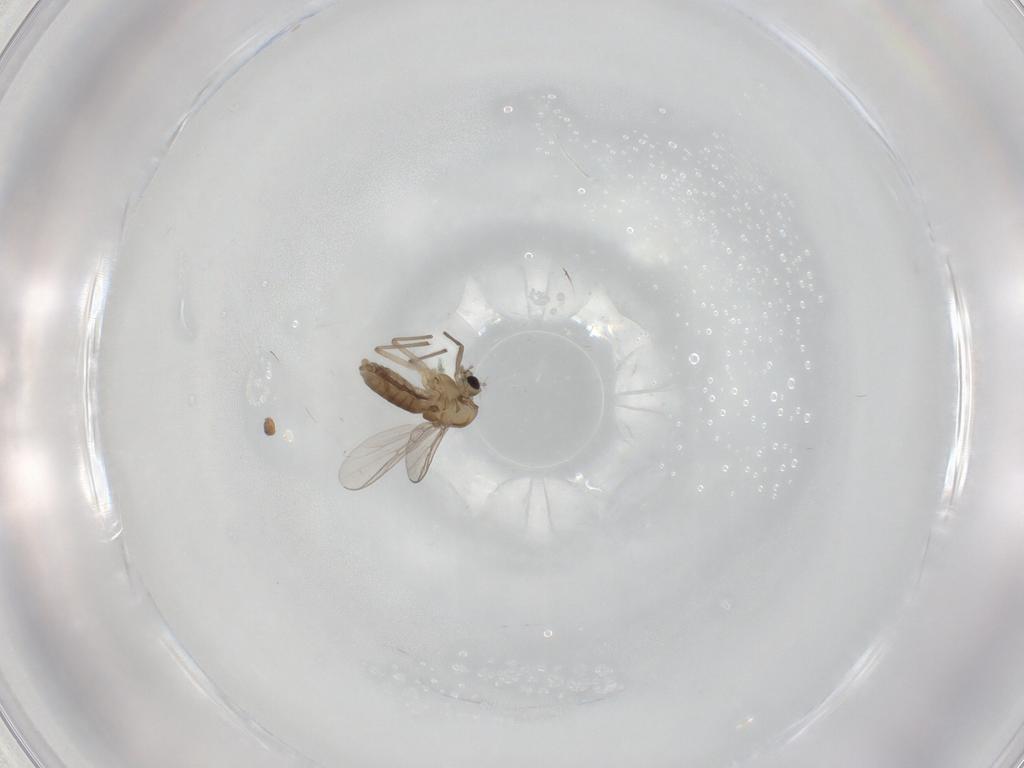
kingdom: Animalia
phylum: Arthropoda
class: Insecta
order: Diptera
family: Chironomidae
